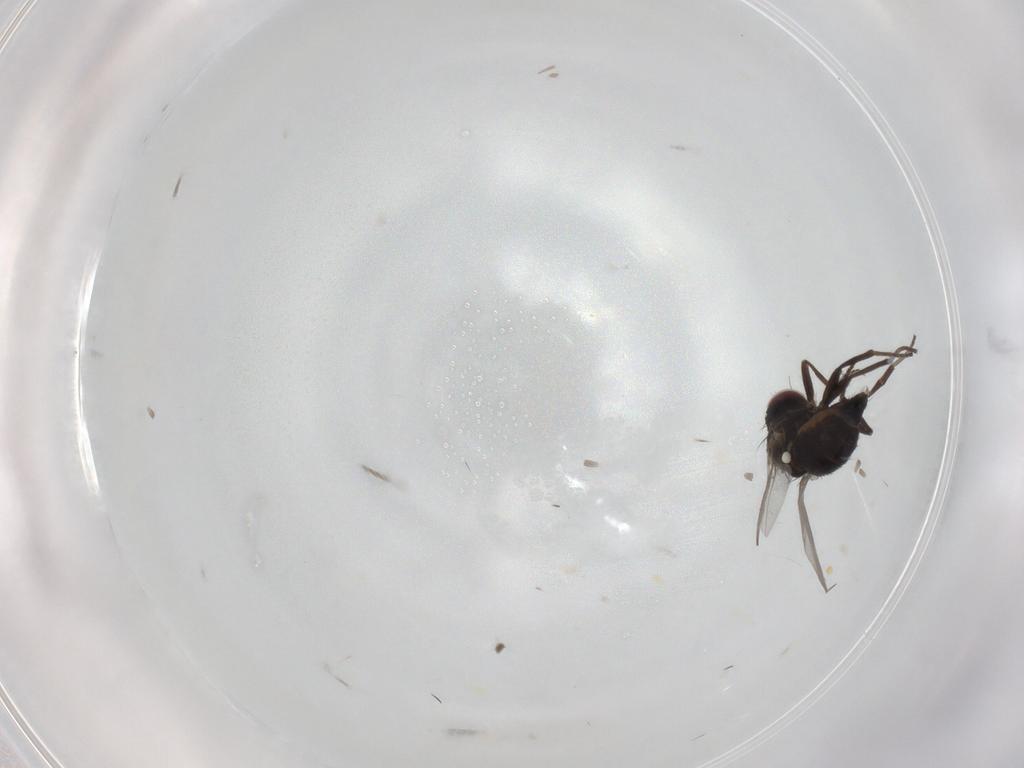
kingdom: Animalia
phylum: Arthropoda
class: Insecta
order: Diptera
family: Agromyzidae
